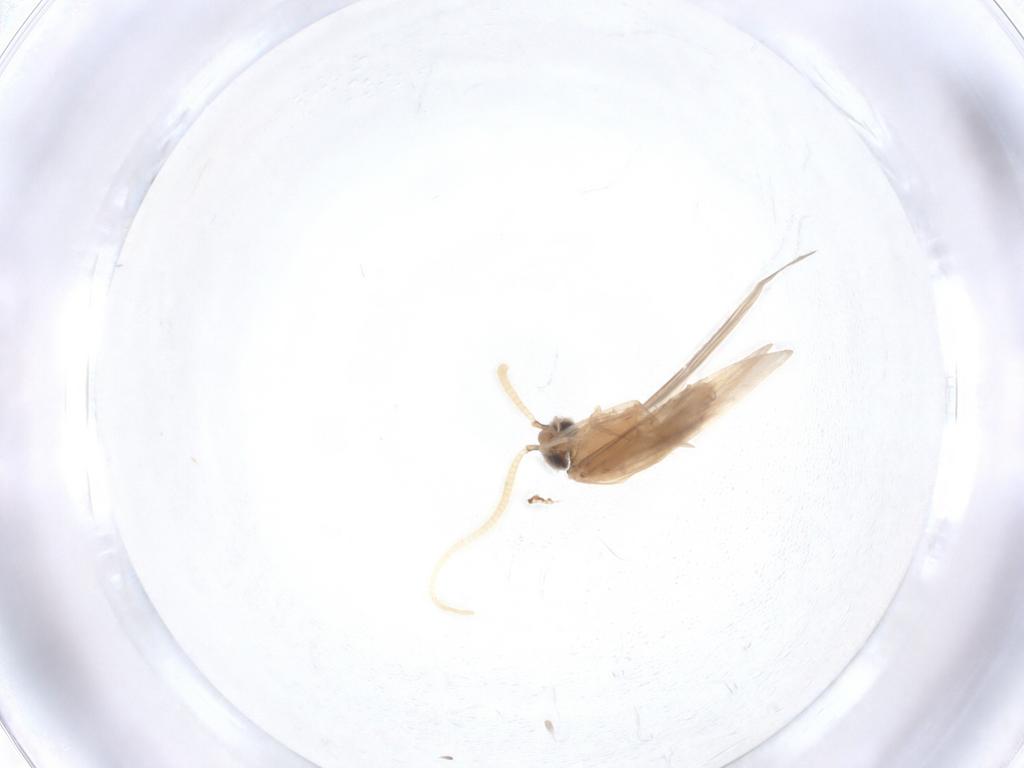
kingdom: Animalia
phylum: Arthropoda
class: Insecta
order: Trichoptera
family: Hydroptilidae
